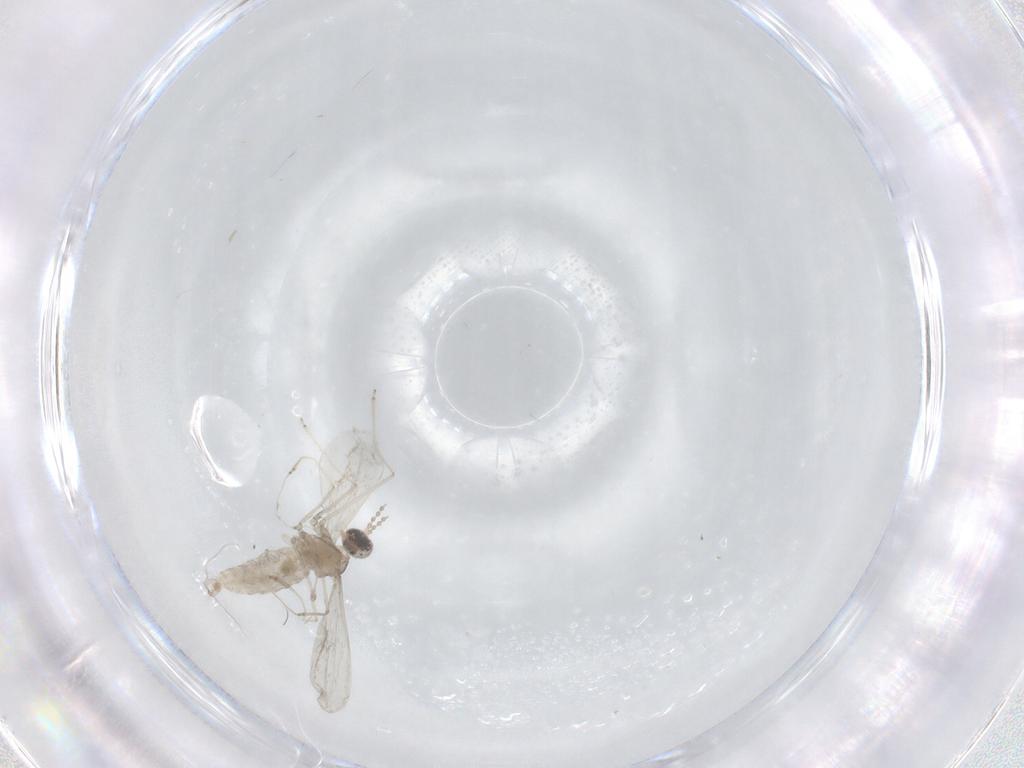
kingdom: Animalia
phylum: Arthropoda
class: Insecta
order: Diptera
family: Cecidomyiidae
